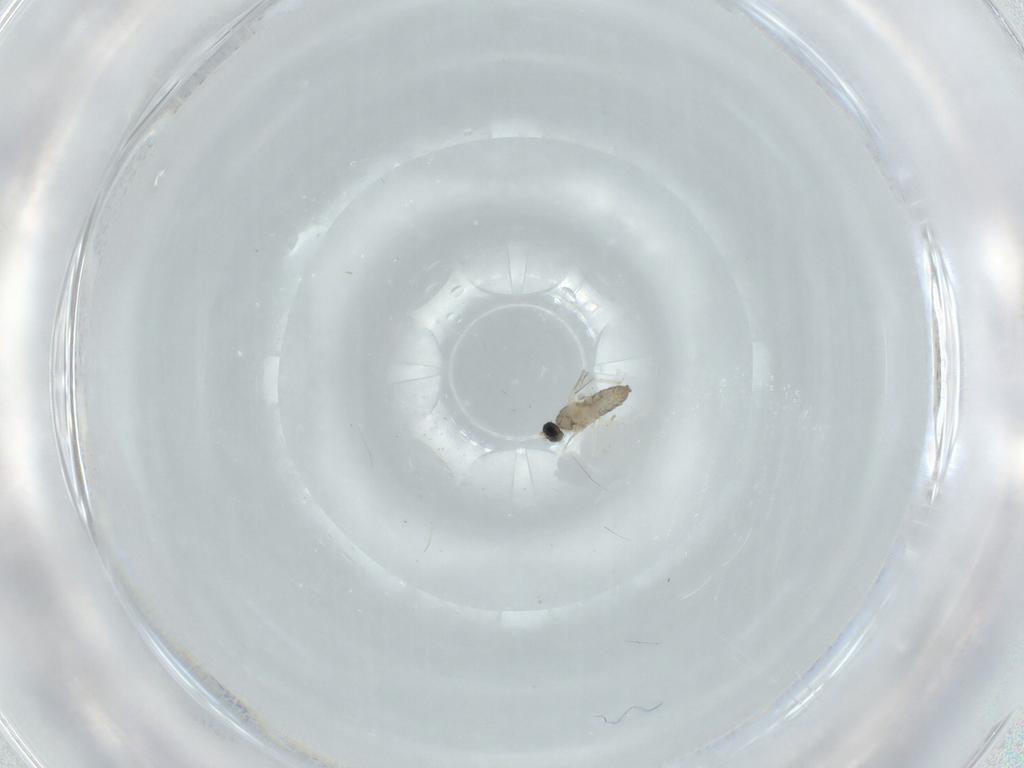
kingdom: Animalia
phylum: Arthropoda
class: Insecta
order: Diptera
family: Cecidomyiidae
